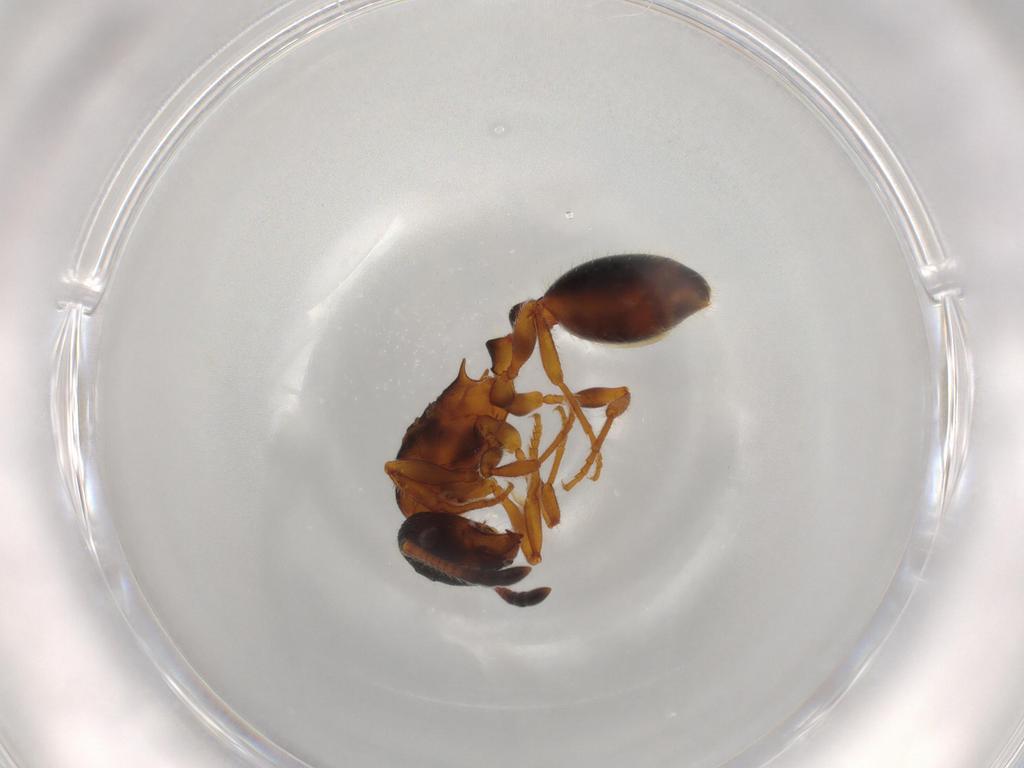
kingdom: Animalia
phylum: Arthropoda
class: Insecta
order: Hymenoptera
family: Formicidae
